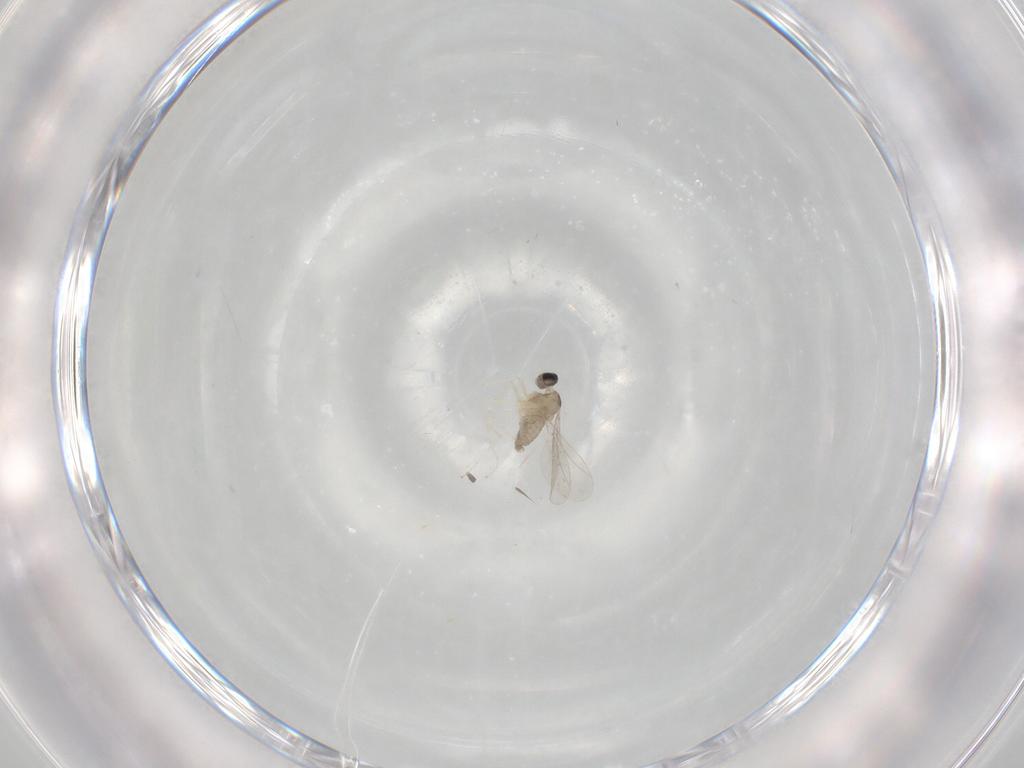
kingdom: Animalia
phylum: Arthropoda
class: Insecta
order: Diptera
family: Cecidomyiidae
